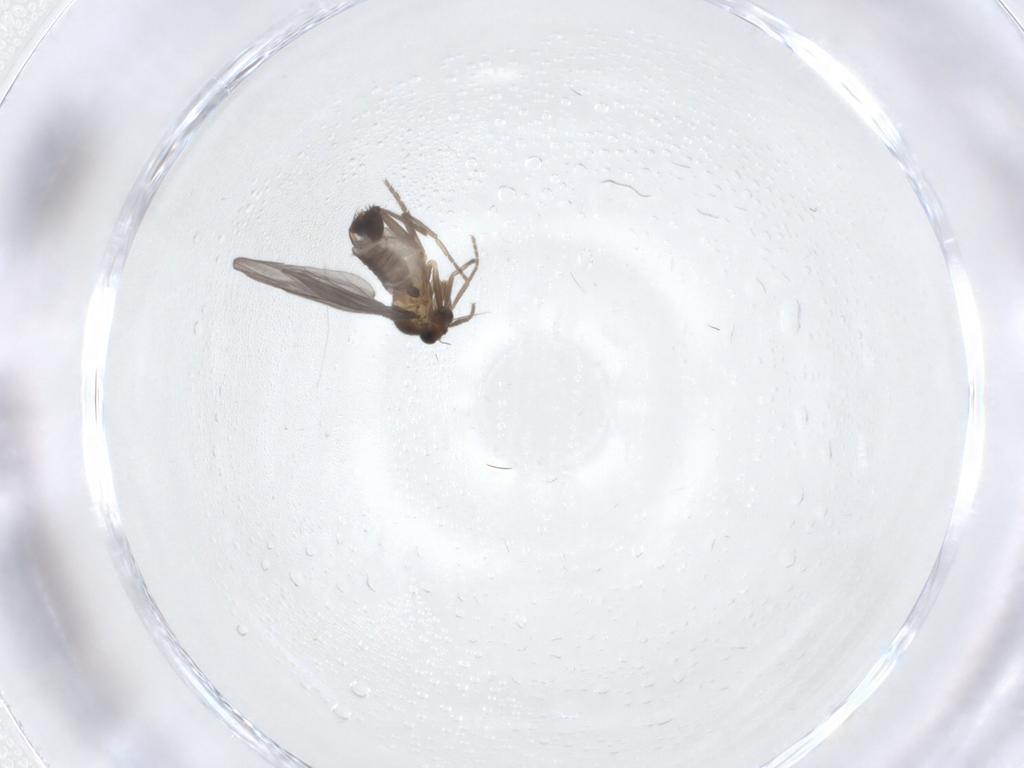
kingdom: Animalia
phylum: Arthropoda
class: Insecta
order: Diptera
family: Phoridae
